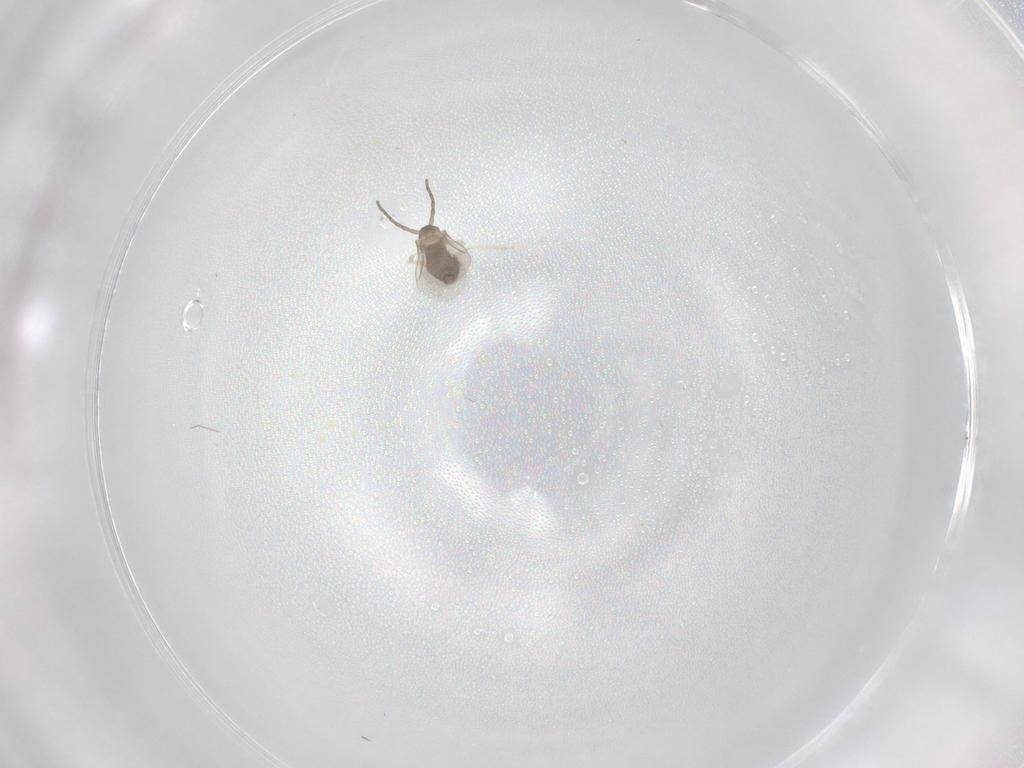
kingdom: Animalia
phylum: Arthropoda
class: Insecta
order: Diptera
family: Cecidomyiidae
